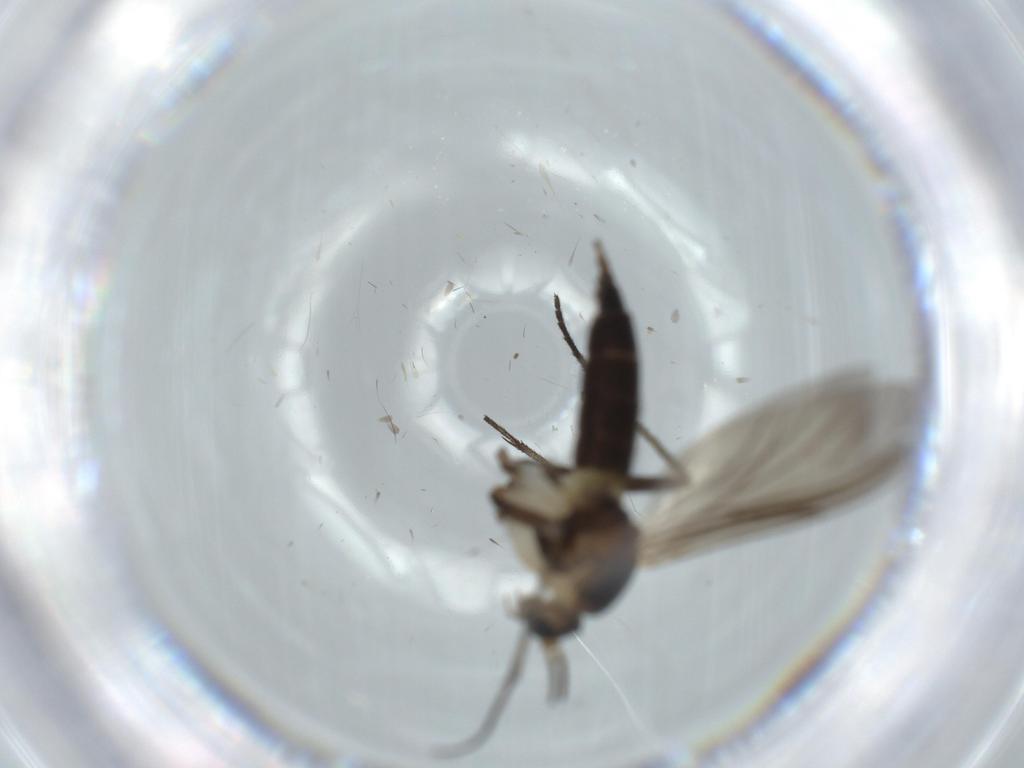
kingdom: Animalia
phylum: Arthropoda
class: Insecta
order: Diptera
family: Sciaridae
